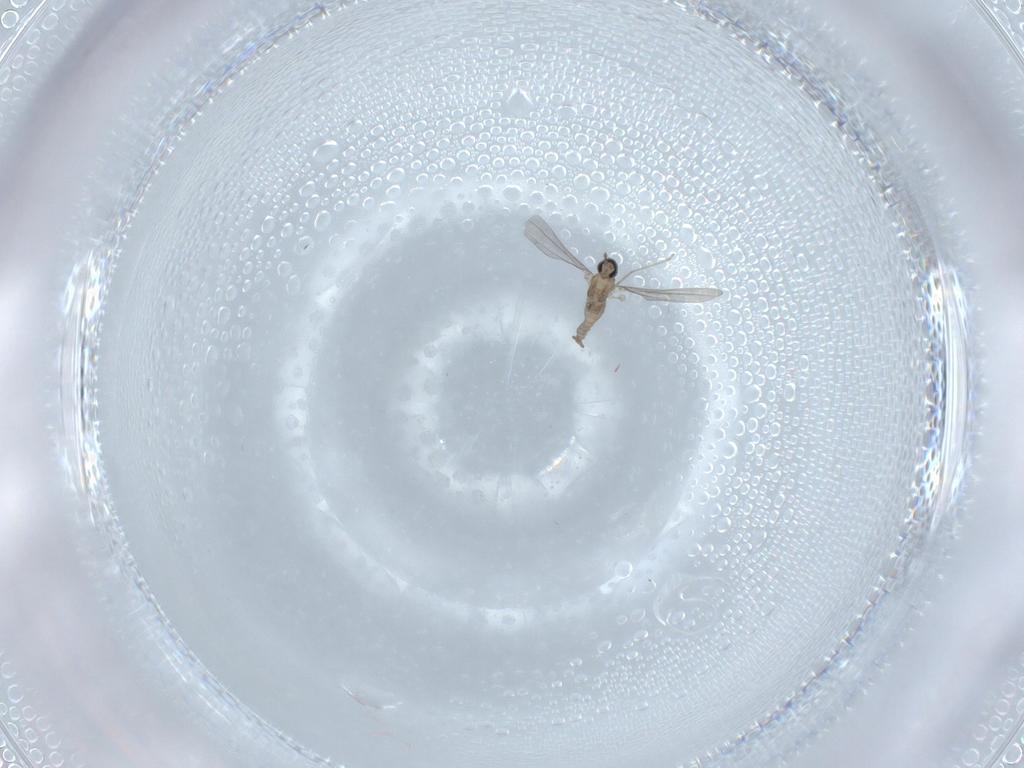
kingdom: Animalia
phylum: Arthropoda
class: Insecta
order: Diptera
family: Cecidomyiidae
